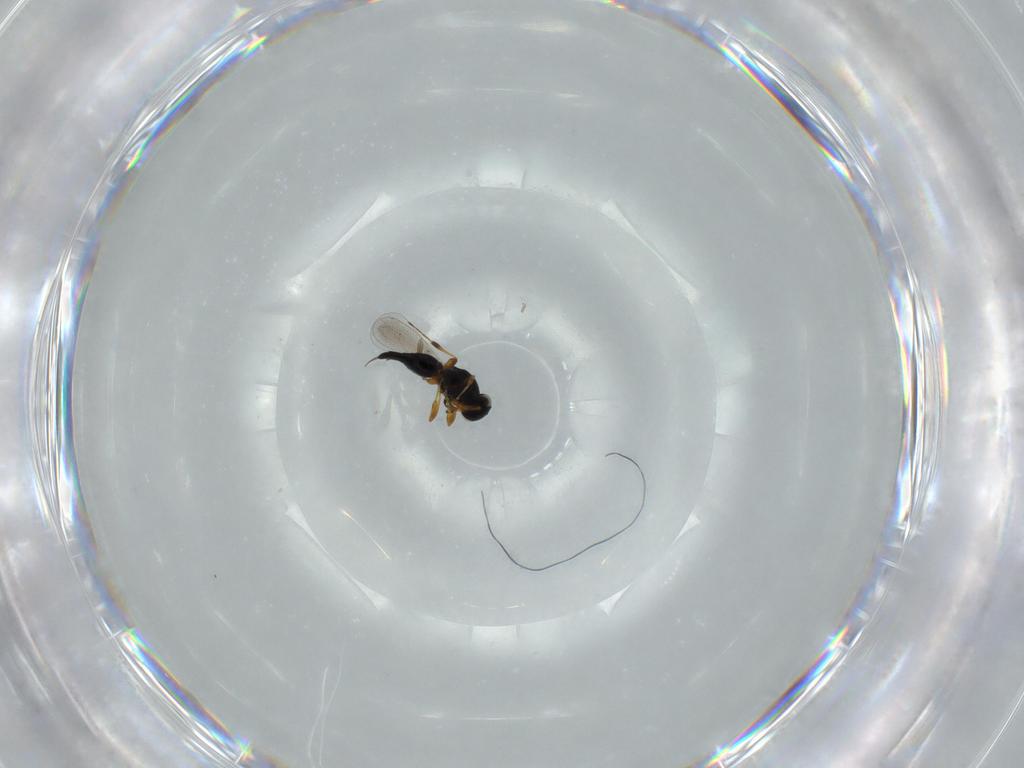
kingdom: Animalia
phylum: Arthropoda
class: Insecta
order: Hymenoptera
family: Platygastridae
